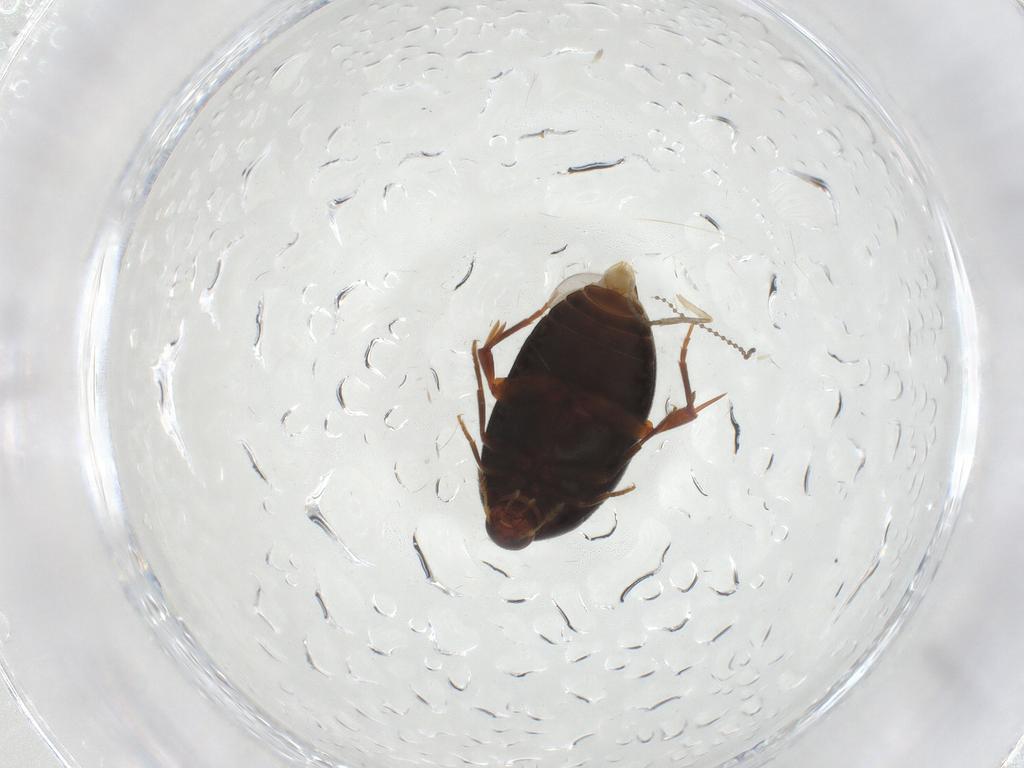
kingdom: Animalia
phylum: Arthropoda
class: Insecta
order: Coleoptera
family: Melandryidae
